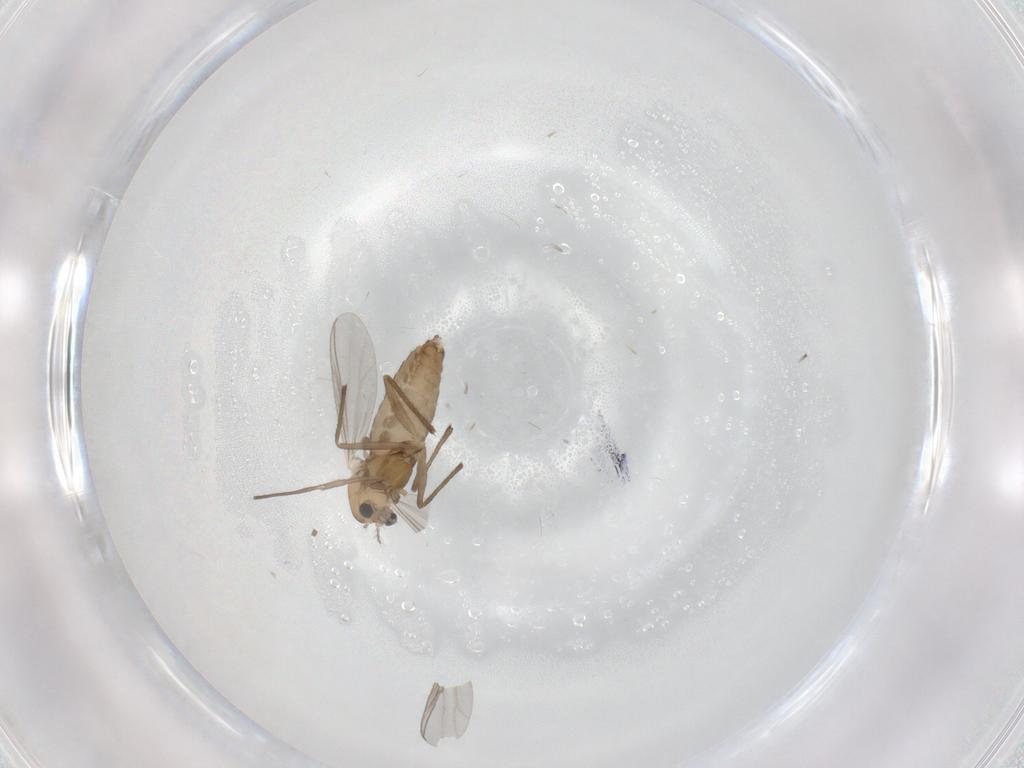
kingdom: Animalia
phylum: Arthropoda
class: Insecta
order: Diptera
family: Chironomidae
